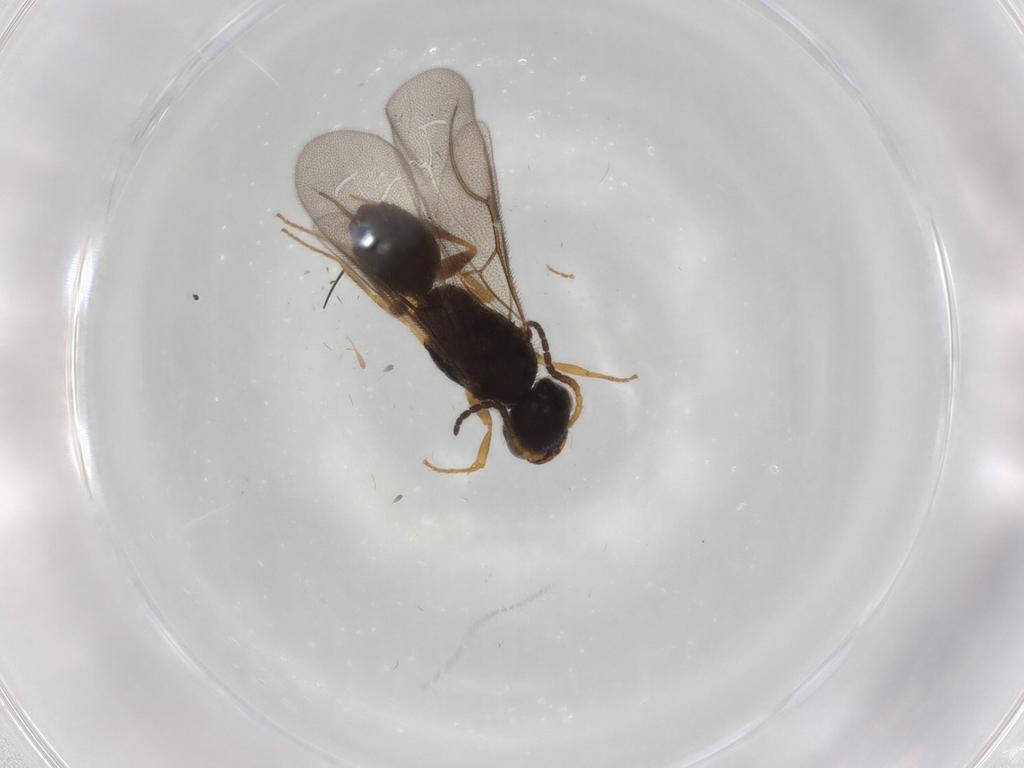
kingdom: Animalia
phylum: Arthropoda
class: Insecta
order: Hymenoptera
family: Bethylidae
